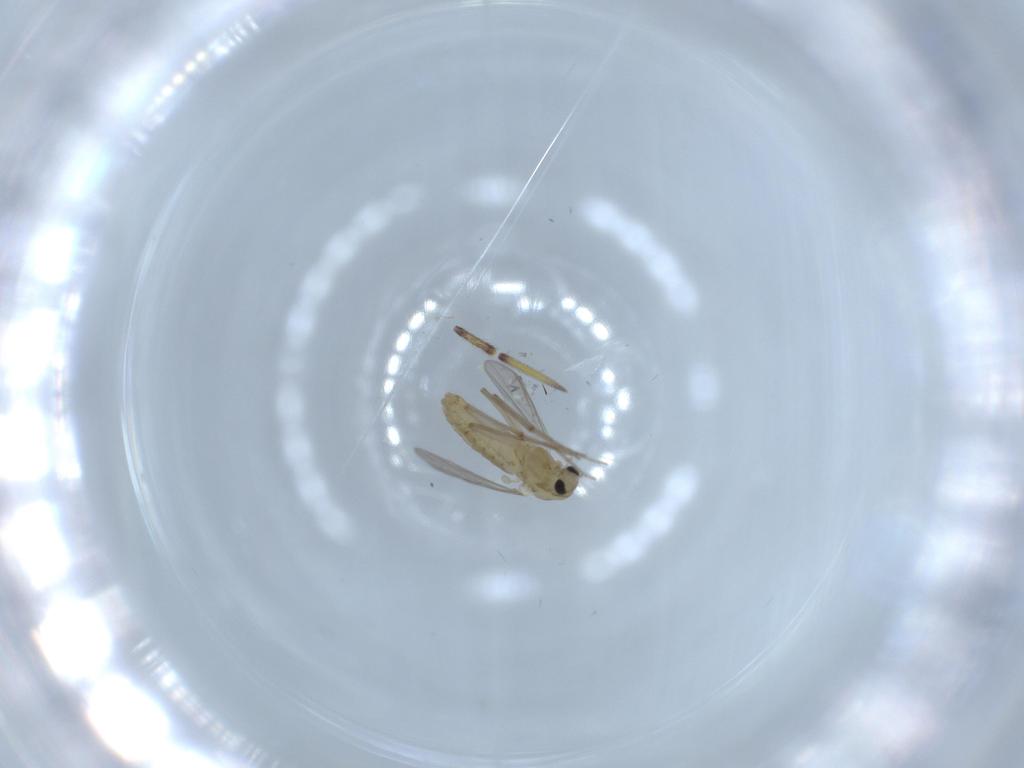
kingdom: Animalia
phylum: Arthropoda
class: Insecta
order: Diptera
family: Chironomidae
